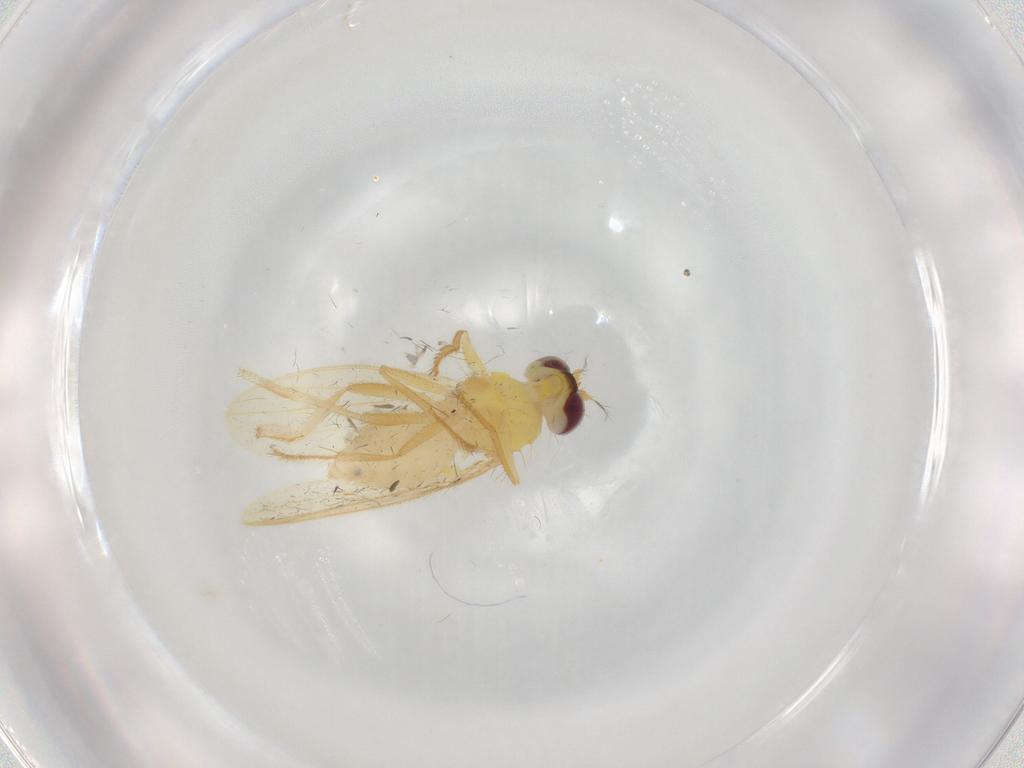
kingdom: Animalia
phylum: Arthropoda
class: Insecta
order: Diptera
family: Periscelididae
